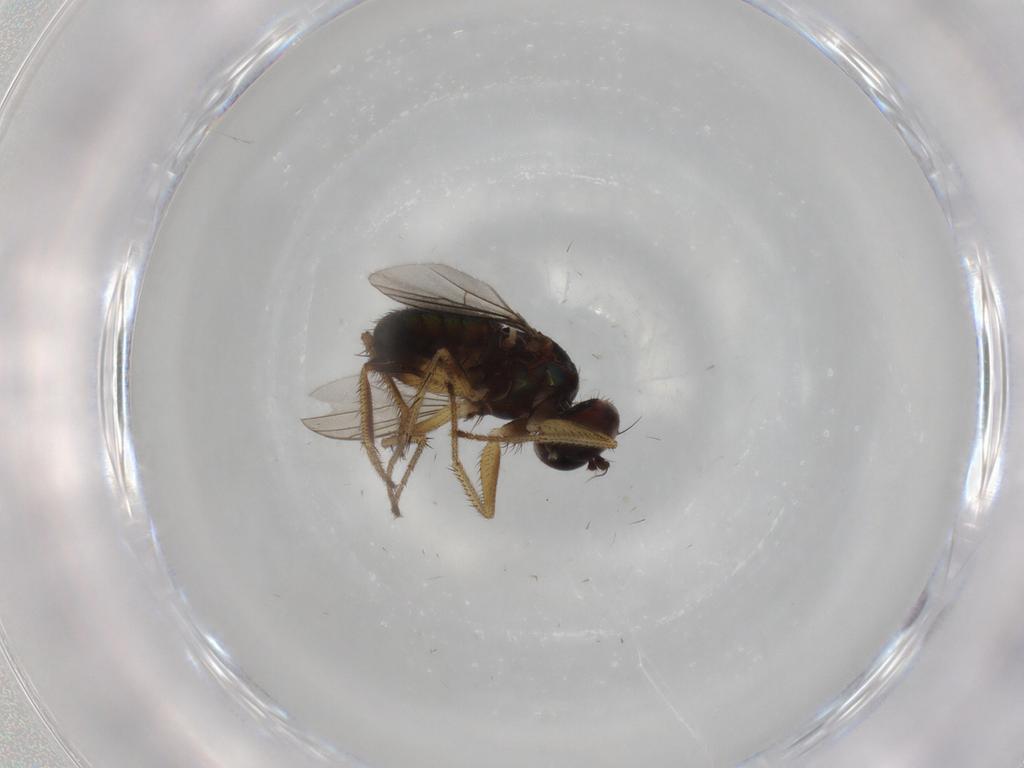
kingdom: Animalia
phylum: Arthropoda
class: Insecta
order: Diptera
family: Dolichopodidae
